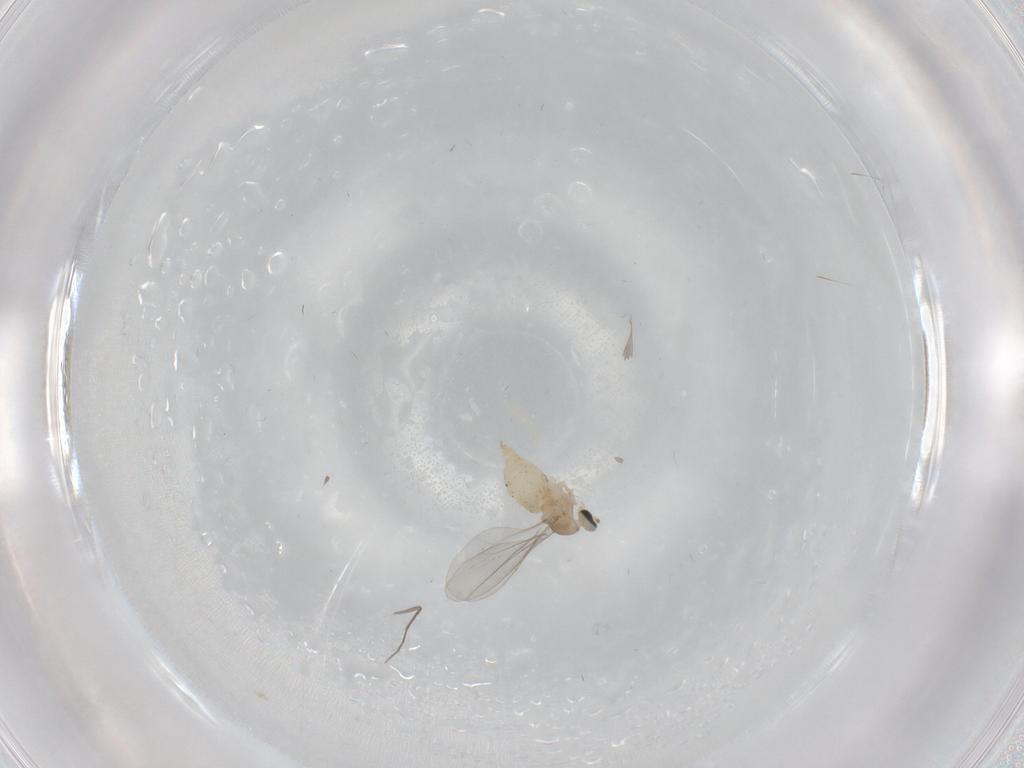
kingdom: Animalia
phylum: Arthropoda
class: Insecta
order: Diptera
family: Cecidomyiidae
